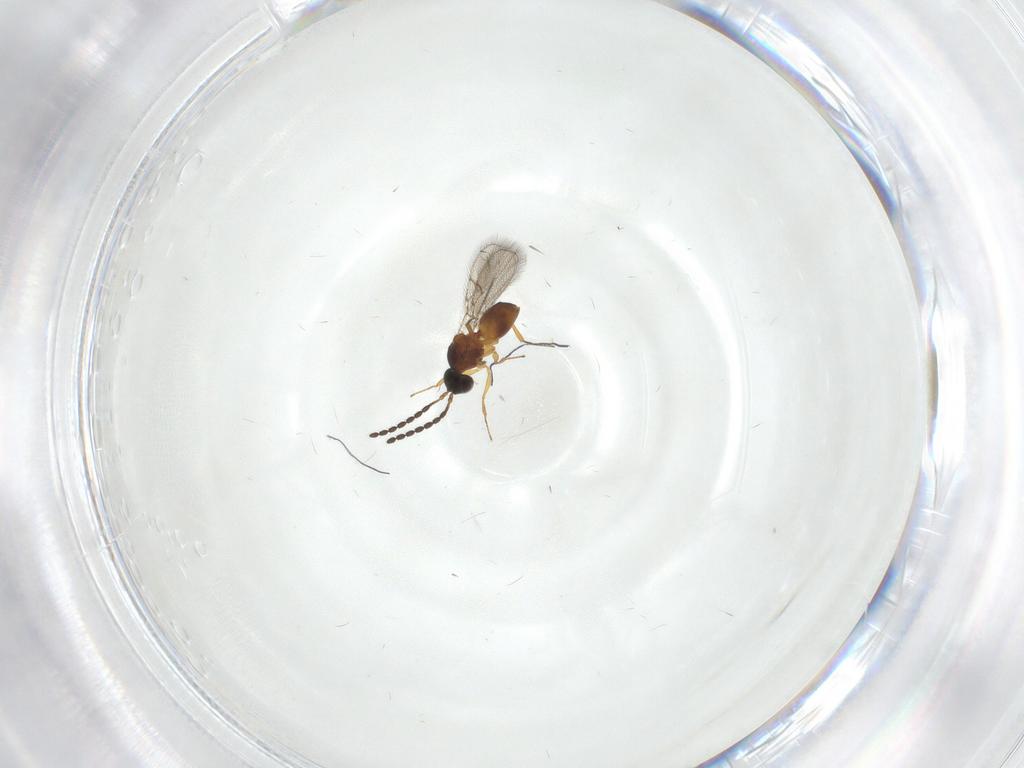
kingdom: Animalia
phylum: Arthropoda
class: Insecta
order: Hymenoptera
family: Figitidae
